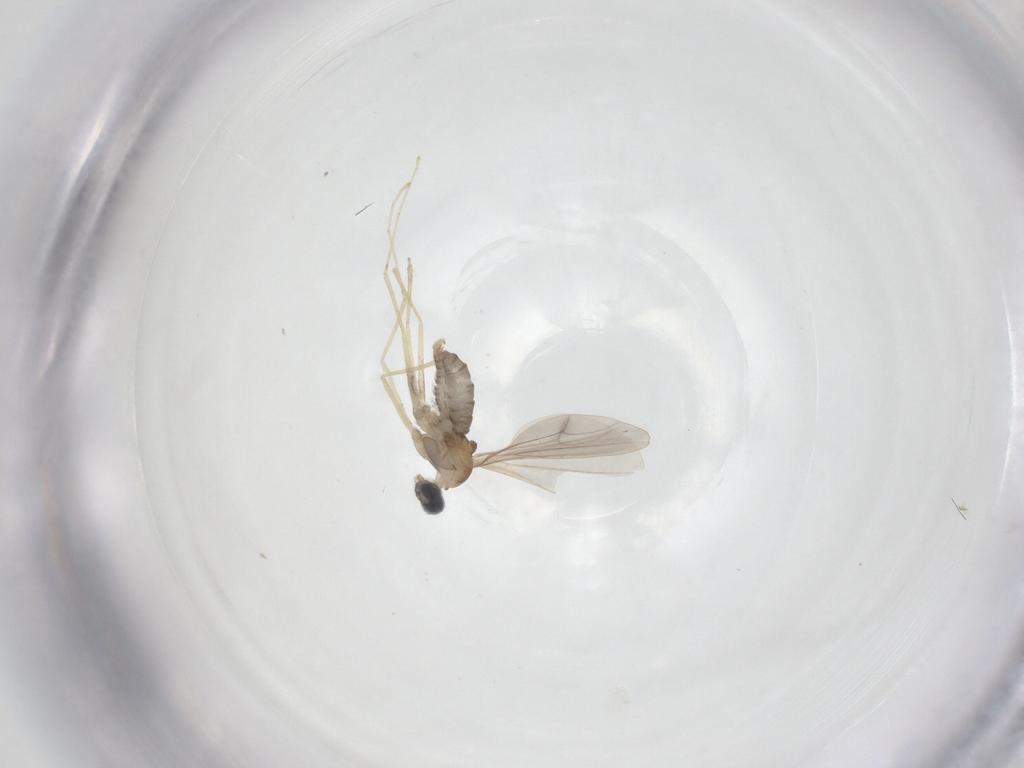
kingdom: Animalia
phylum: Arthropoda
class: Insecta
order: Diptera
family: Cecidomyiidae
